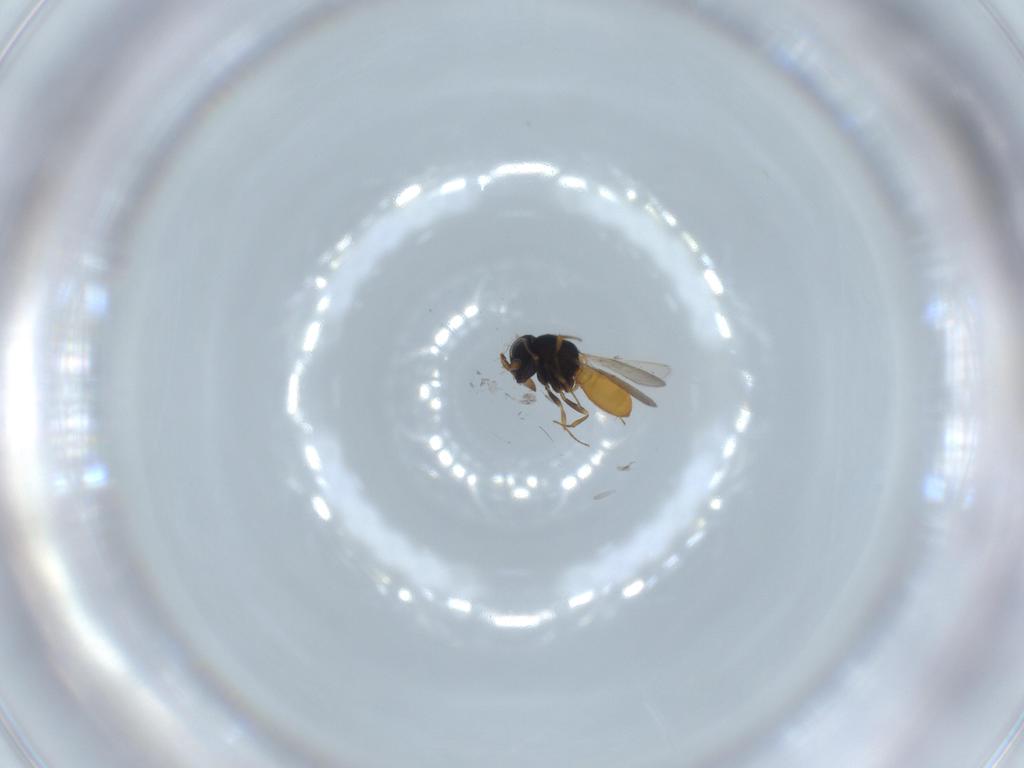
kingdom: Animalia
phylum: Arthropoda
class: Insecta
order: Hymenoptera
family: Scelionidae
